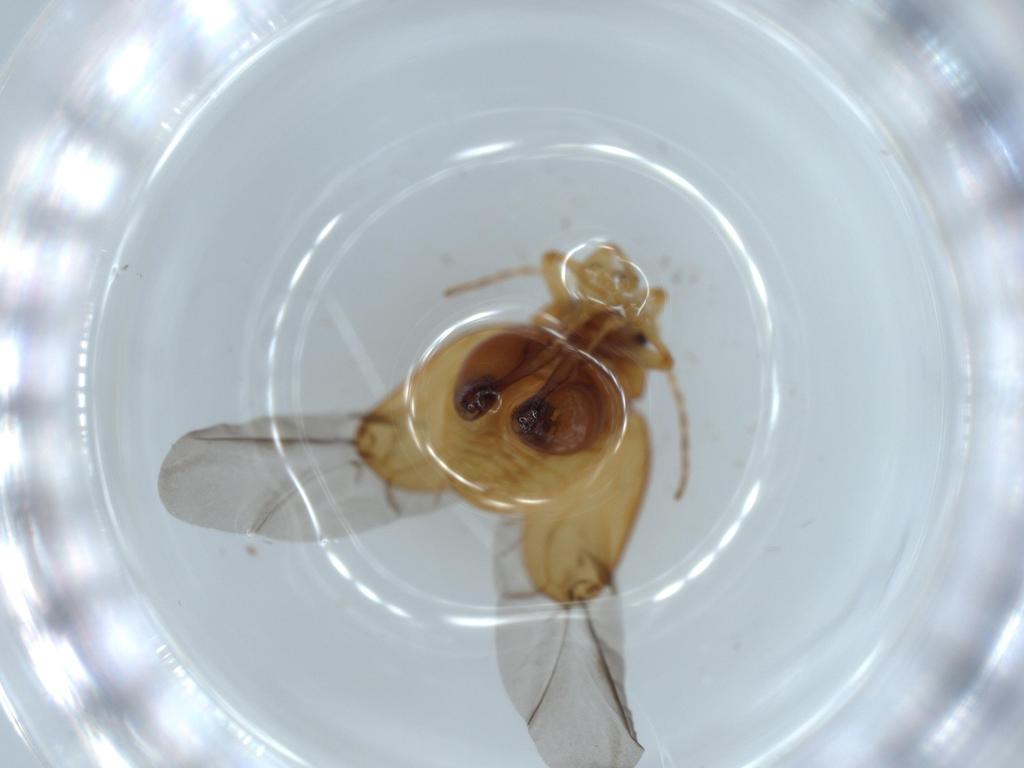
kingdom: Animalia
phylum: Arthropoda
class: Insecta
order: Coleoptera
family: Chrysomelidae
